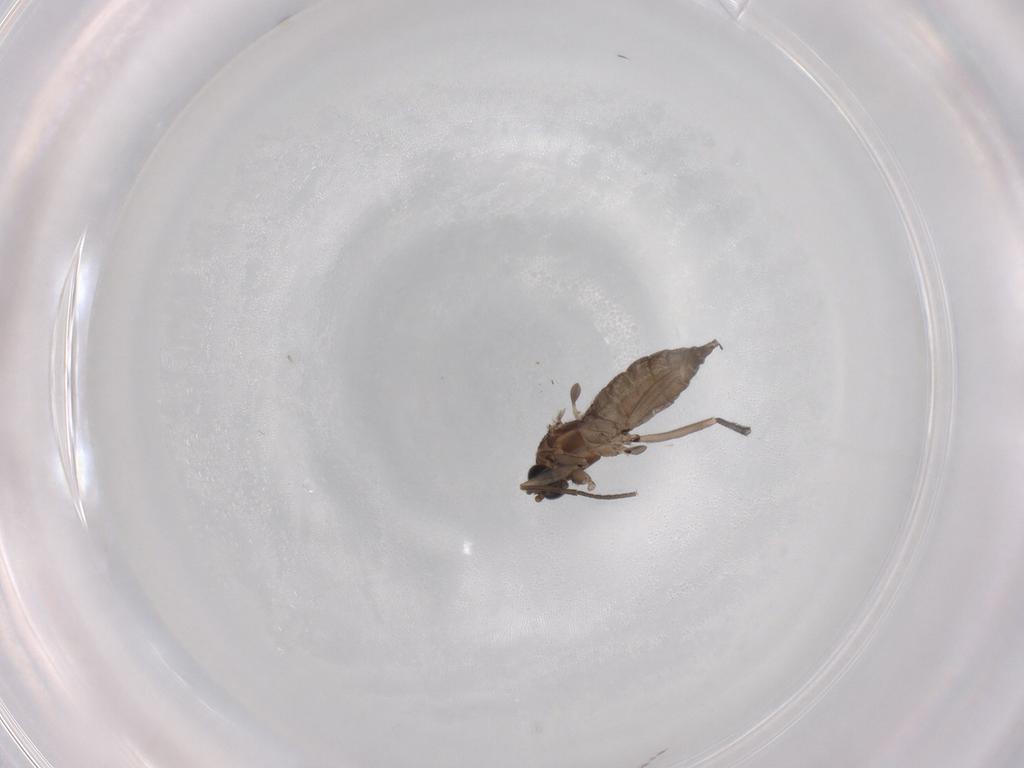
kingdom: Animalia
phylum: Arthropoda
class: Insecta
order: Diptera
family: Sciaridae
